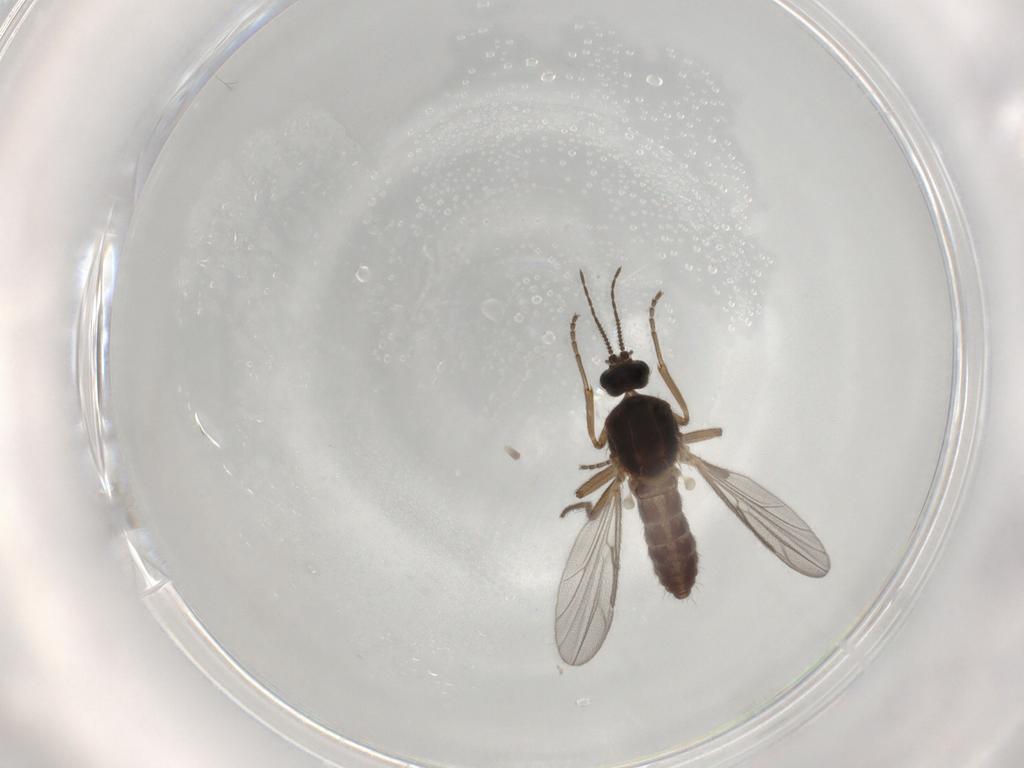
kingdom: Animalia
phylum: Arthropoda
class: Insecta
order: Diptera
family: Ceratopogonidae
